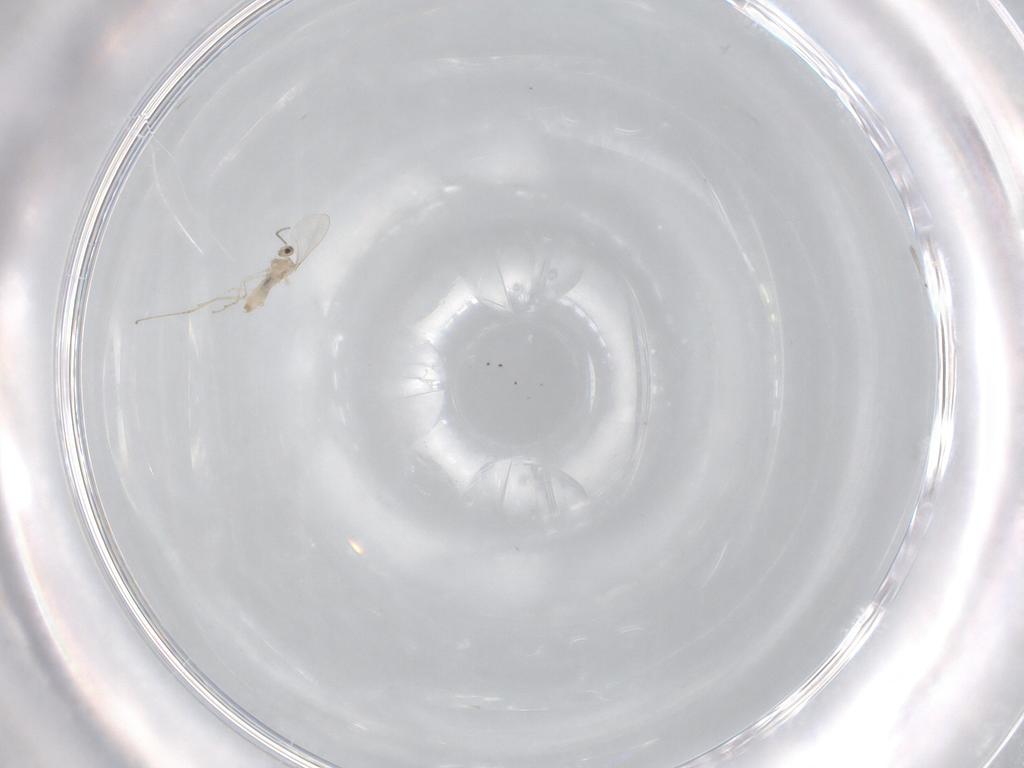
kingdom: Animalia
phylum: Arthropoda
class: Insecta
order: Diptera
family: Cecidomyiidae
